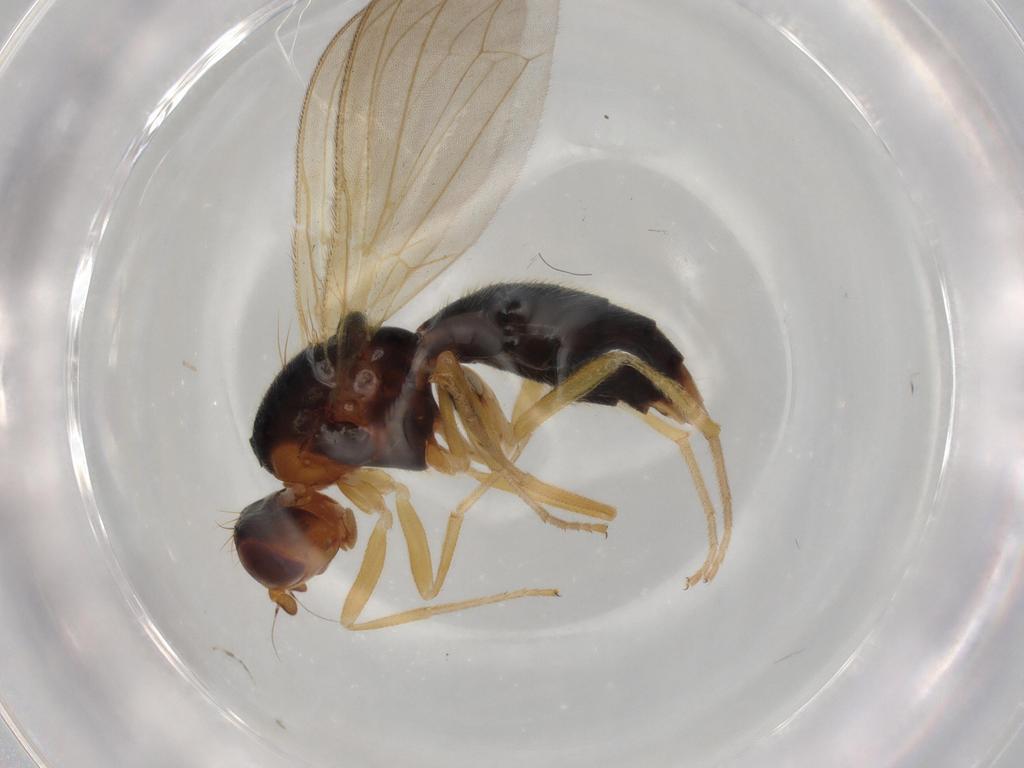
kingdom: Animalia
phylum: Arthropoda
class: Insecta
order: Diptera
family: Psilidae
